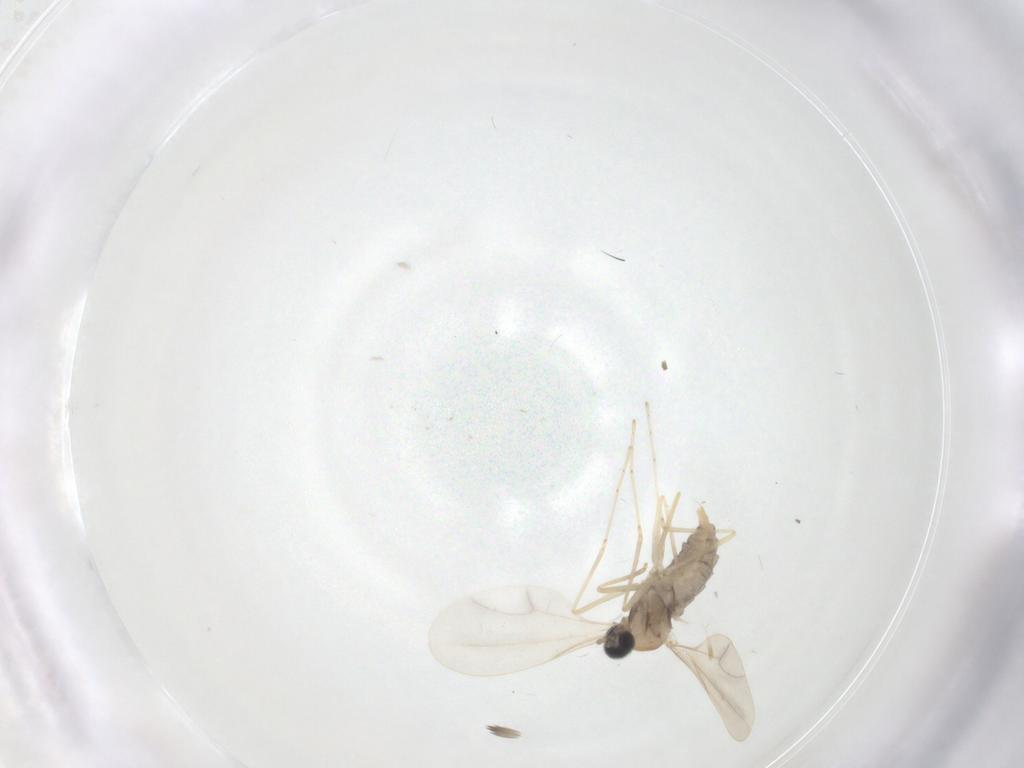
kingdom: Animalia
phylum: Arthropoda
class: Insecta
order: Diptera
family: Cecidomyiidae
